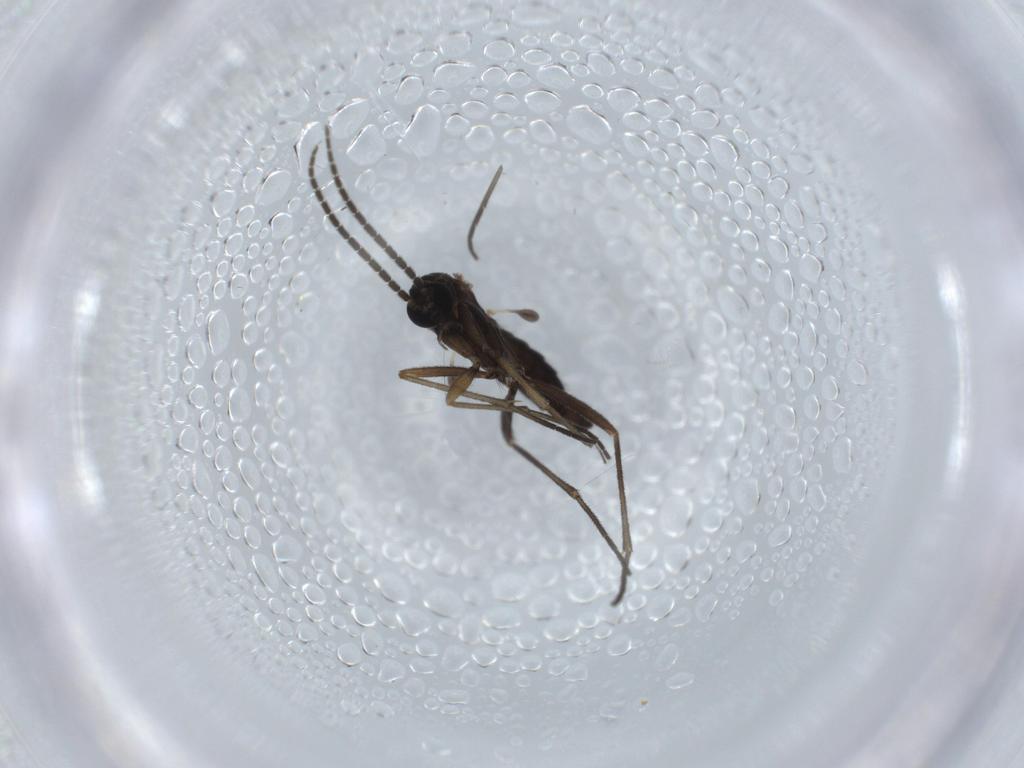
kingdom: Animalia
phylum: Arthropoda
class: Insecta
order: Diptera
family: Sciaridae
